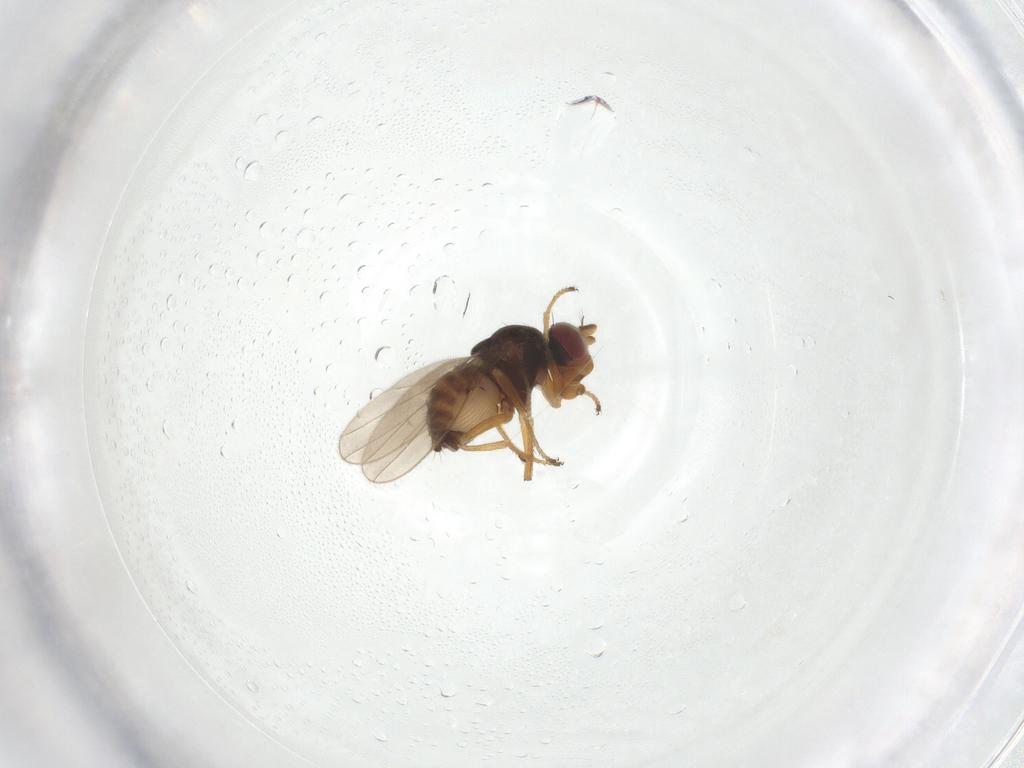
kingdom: Animalia
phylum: Arthropoda
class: Insecta
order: Diptera
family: Ephydridae
